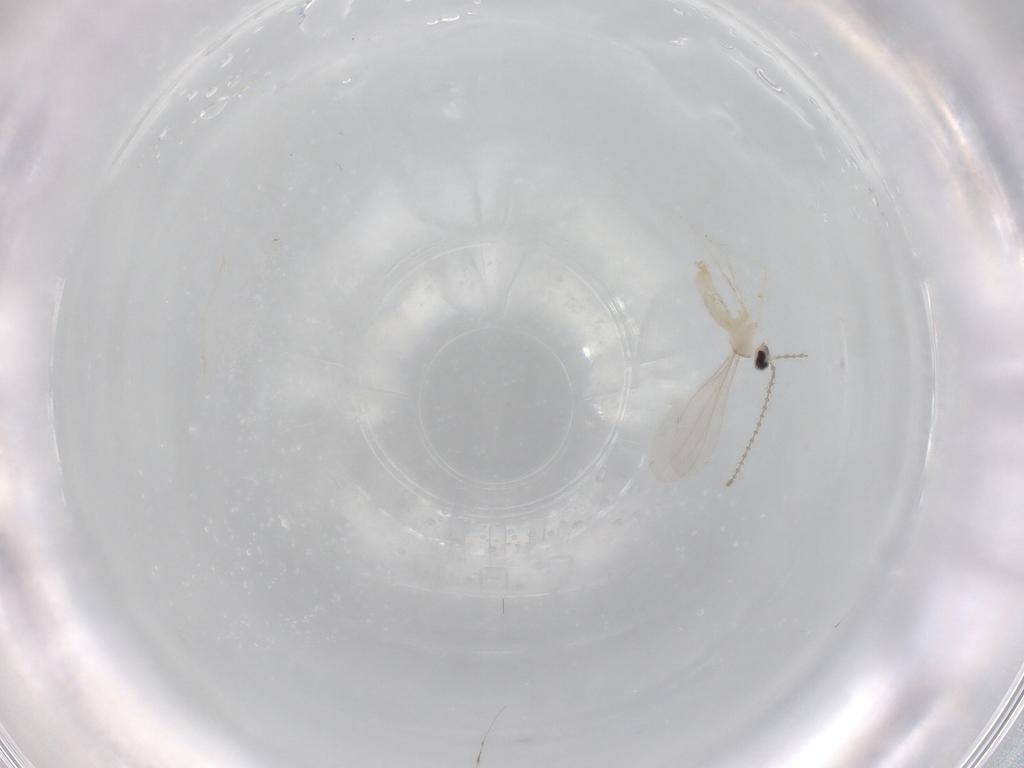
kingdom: Animalia
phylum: Arthropoda
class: Insecta
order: Diptera
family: Cecidomyiidae
